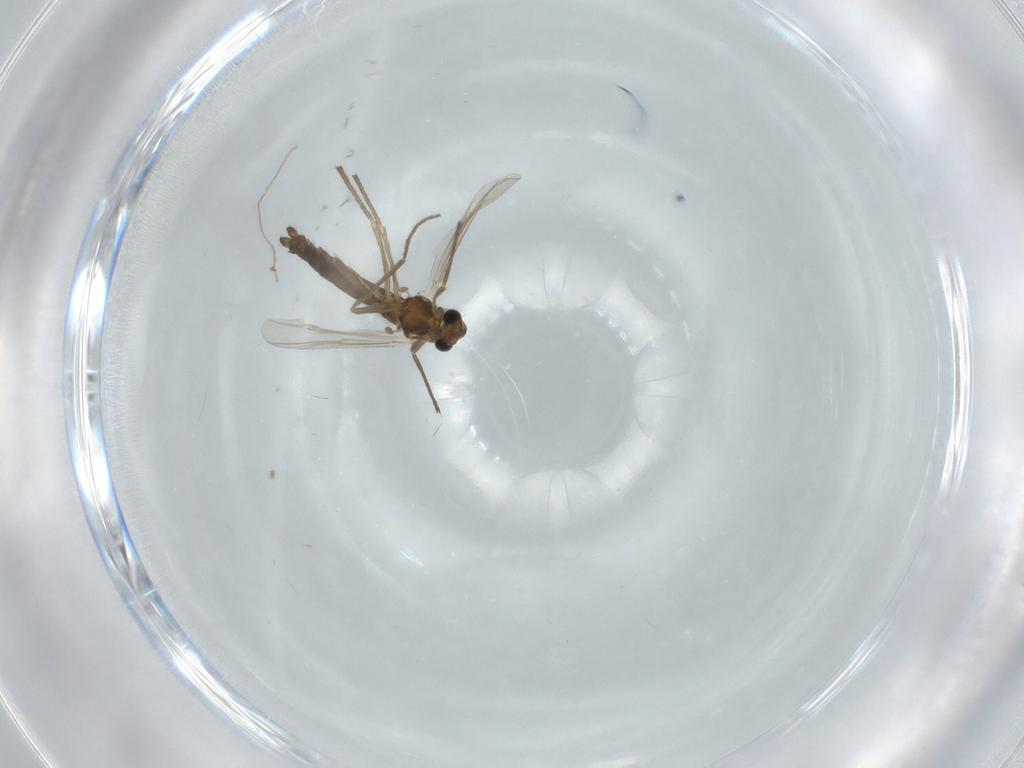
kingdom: Animalia
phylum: Arthropoda
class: Insecta
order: Diptera
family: Chironomidae
